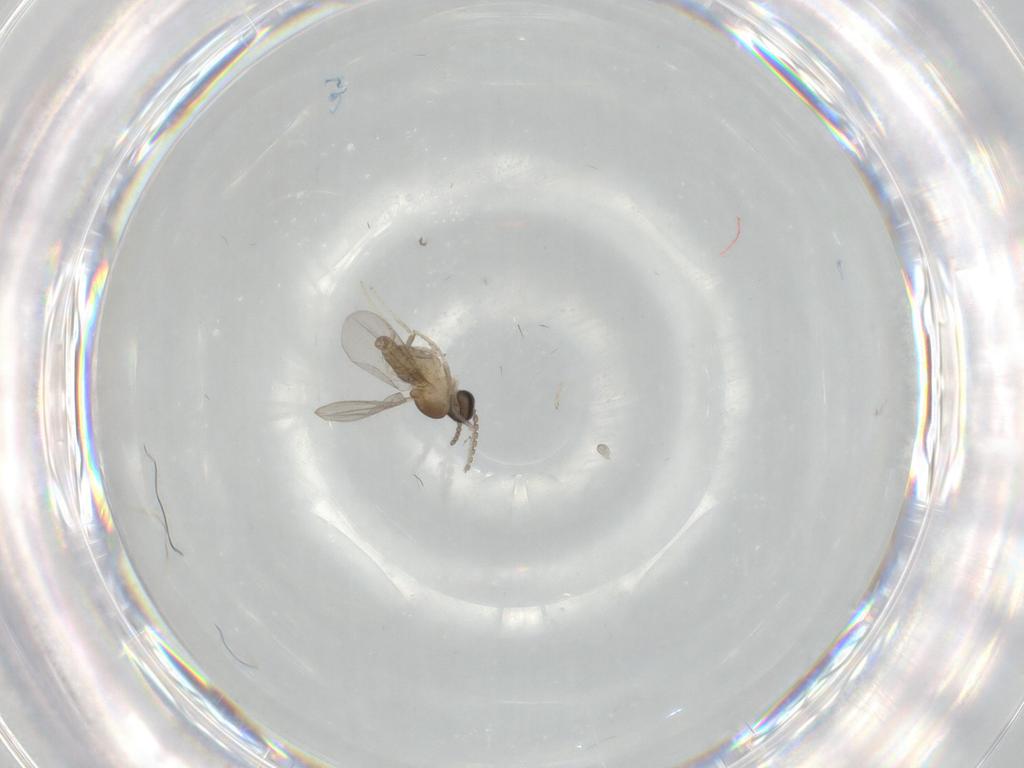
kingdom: Animalia
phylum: Arthropoda
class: Insecta
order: Diptera
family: Cecidomyiidae
